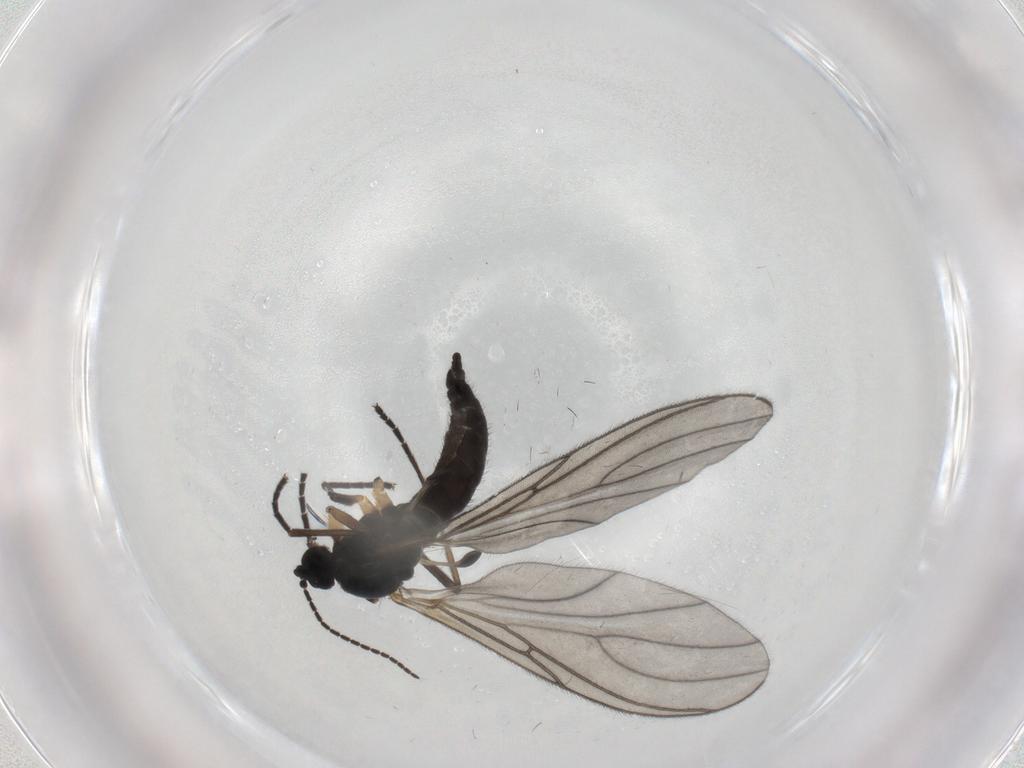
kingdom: Animalia
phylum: Arthropoda
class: Insecta
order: Diptera
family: Sciaridae
